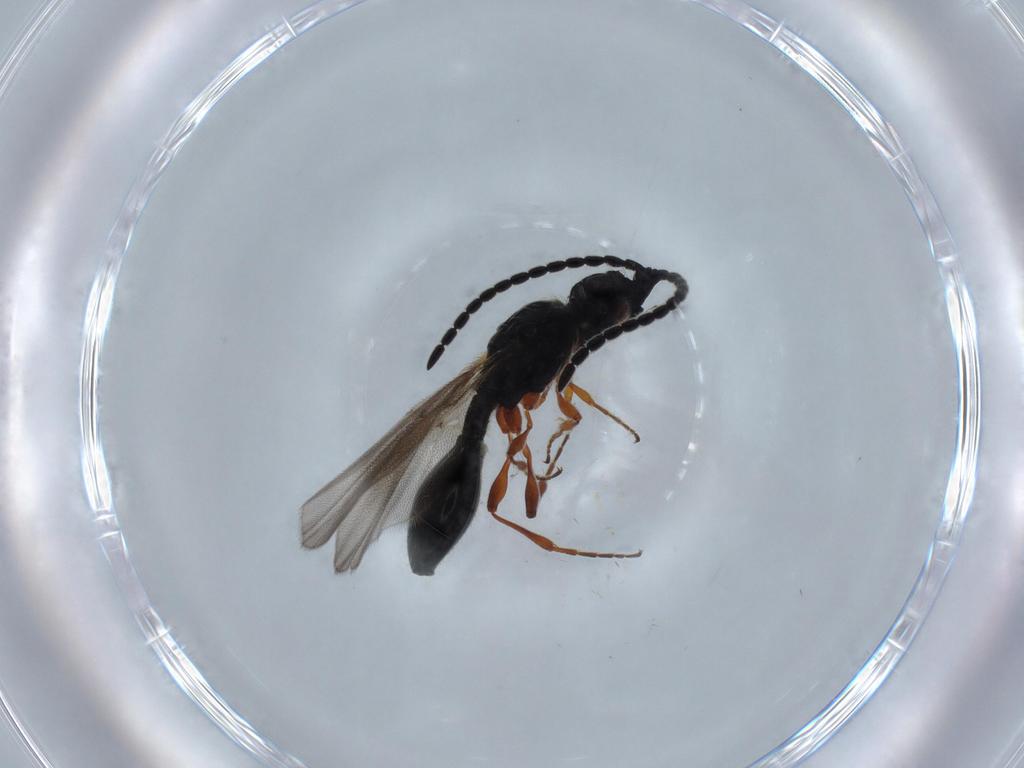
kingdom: Animalia
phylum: Arthropoda
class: Insecta
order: Hymenoptera
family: Diapriidae
